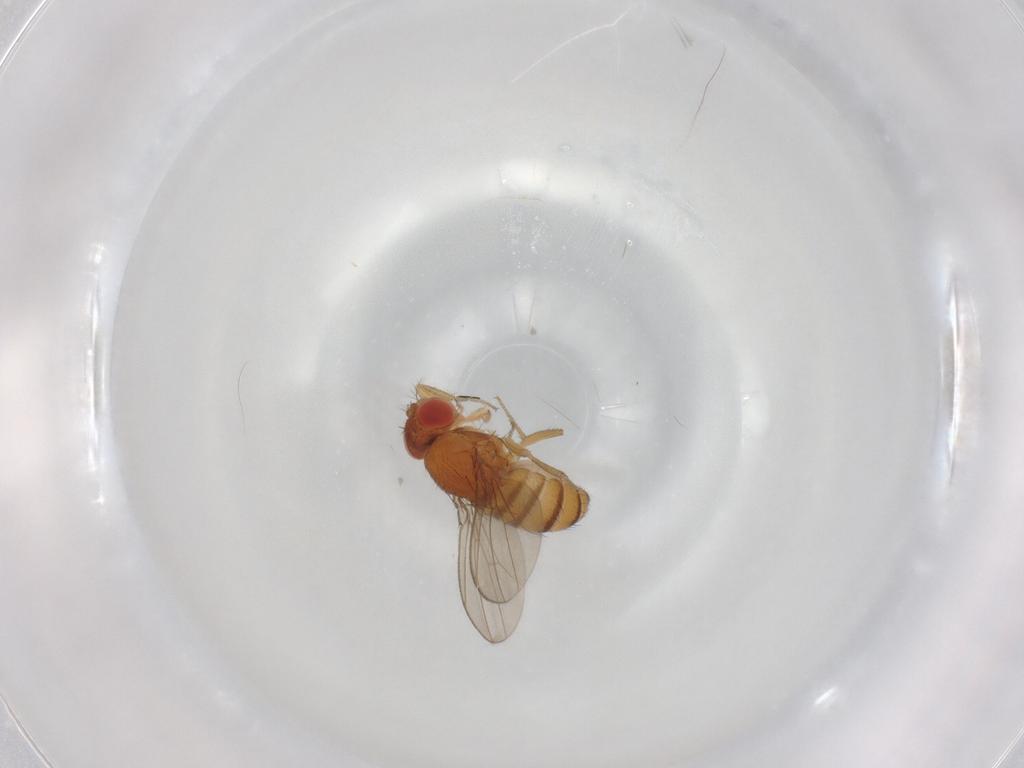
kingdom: Animalia
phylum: Arthropoda
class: Insecta
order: Diptera
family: Drosophilidae
